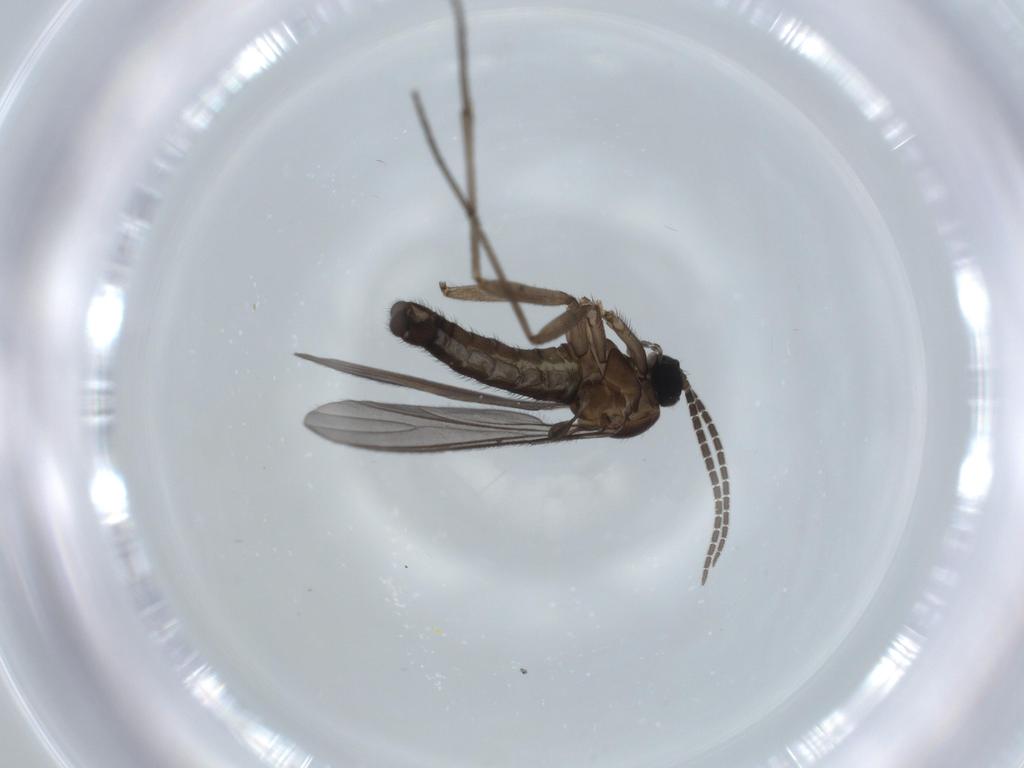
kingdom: Animalia
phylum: Arthropoda
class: Insecta
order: Diptera
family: Sciaridae
